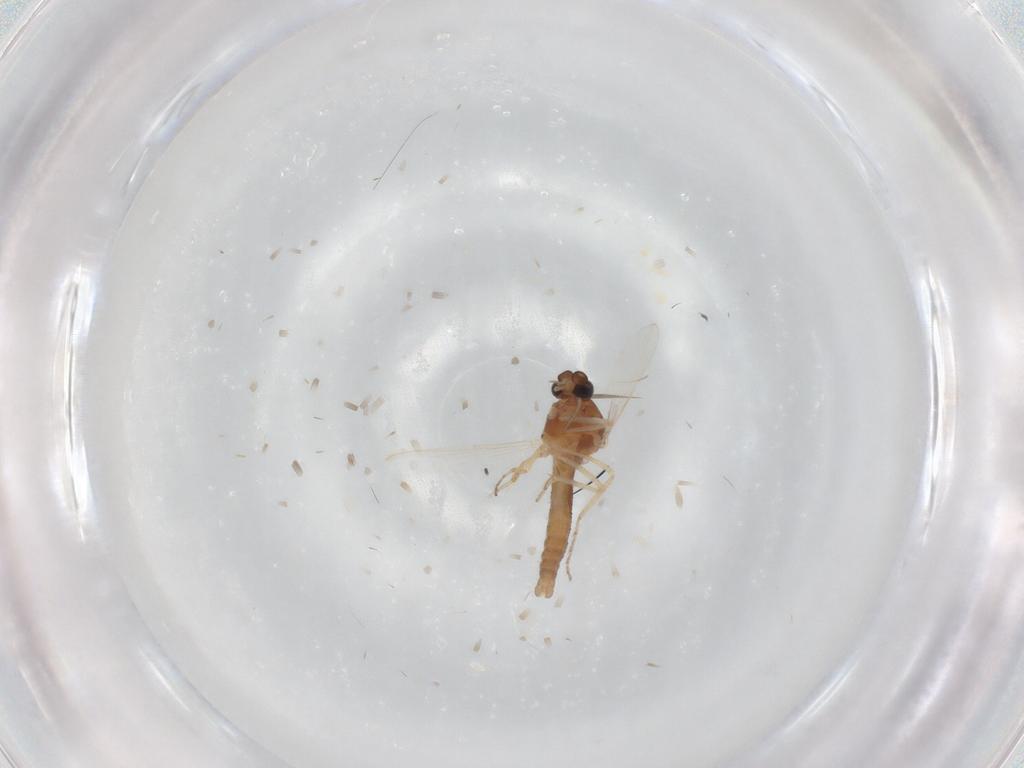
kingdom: Animalia
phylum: Arthropoda
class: Insecta
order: Diptera
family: Ceratopogonidae
